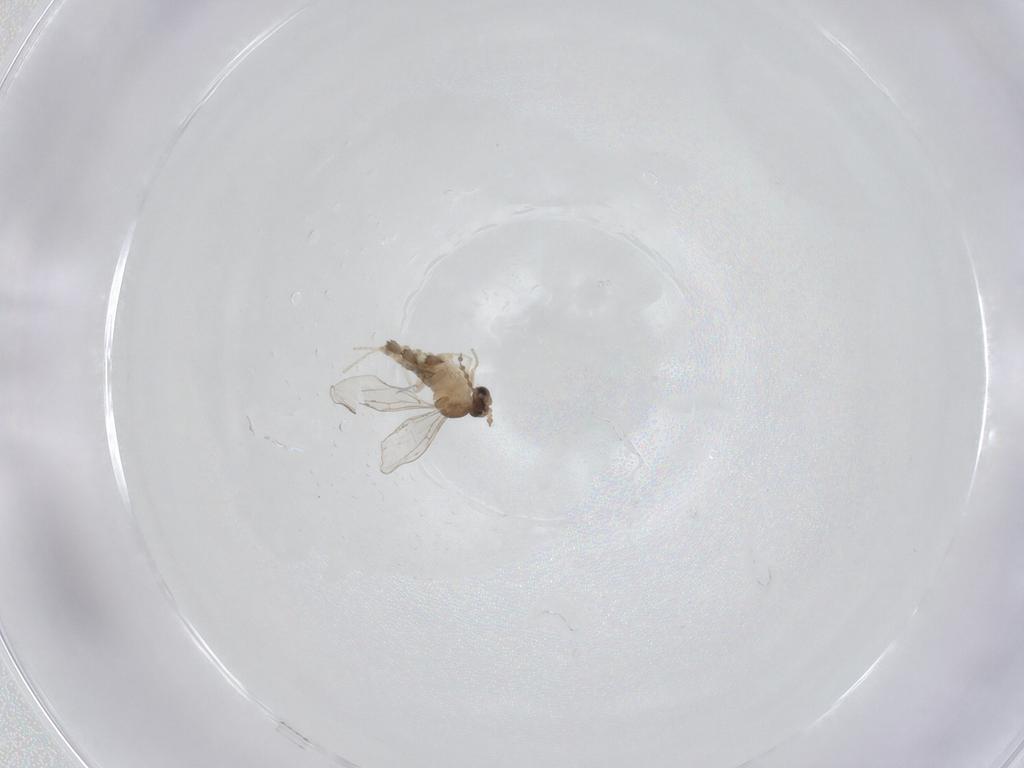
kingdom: Animalia
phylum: Arthropoda
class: Insecta
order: Diptera
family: Cecidomyiidae
